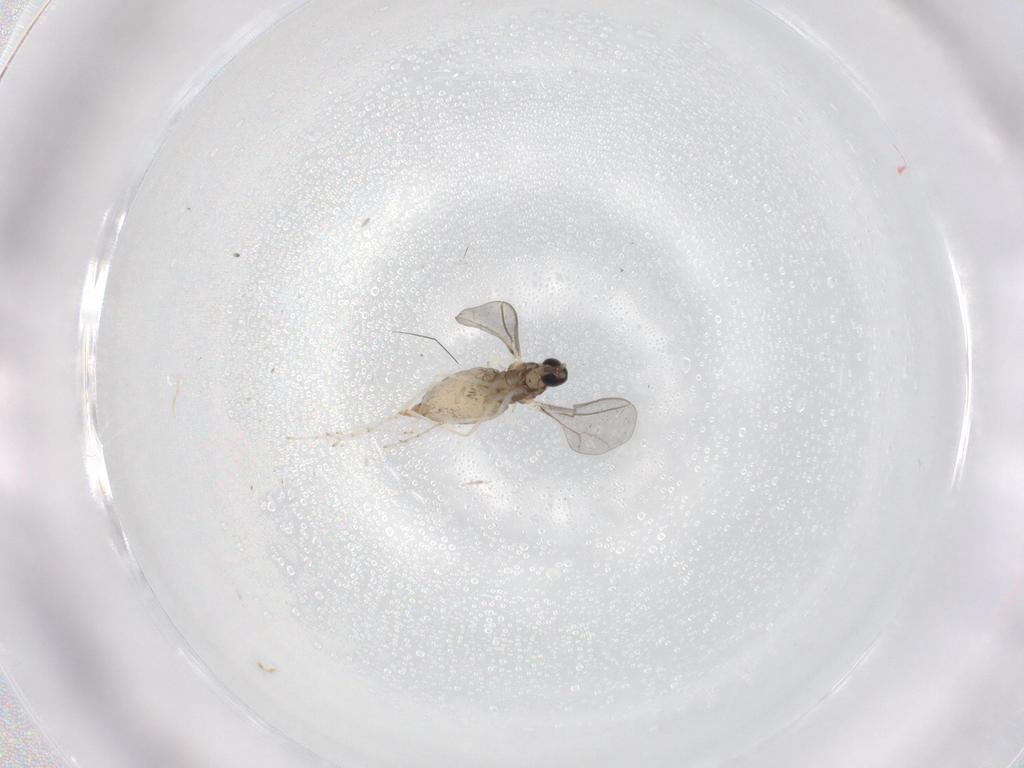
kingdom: Animalia
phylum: Arthropoda
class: Insecta
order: Diptera
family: Cecidomyiidae
